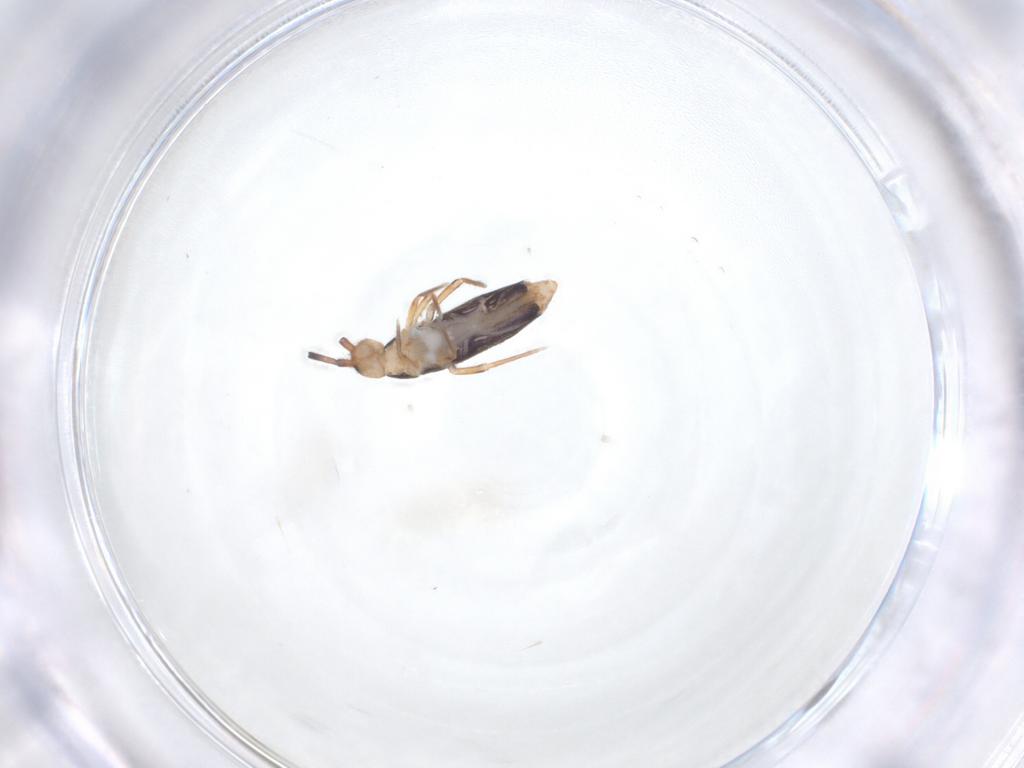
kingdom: Animalia
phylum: Arthropoda
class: Collembola
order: Entomobryomorpha
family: Entomobryidae
